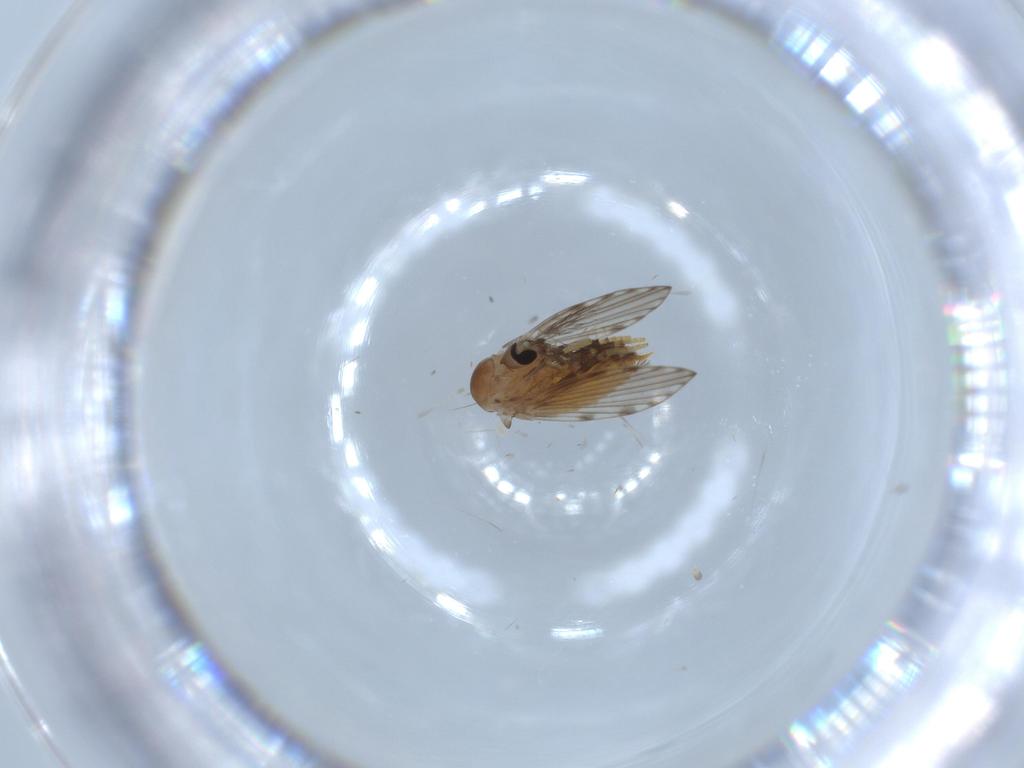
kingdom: Animalia
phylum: Arthropoda
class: Insecta
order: Diptera
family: Psychodidae
